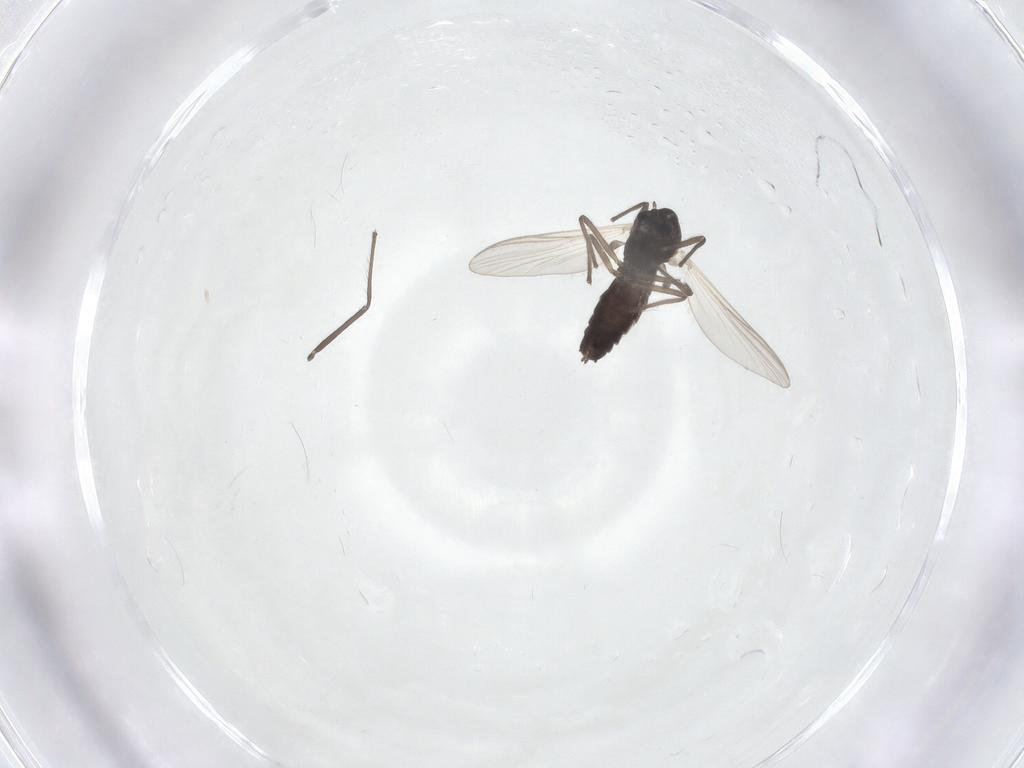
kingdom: Animalia
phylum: Arthropoda
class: Insecta
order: Diptera
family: Chironomidae
